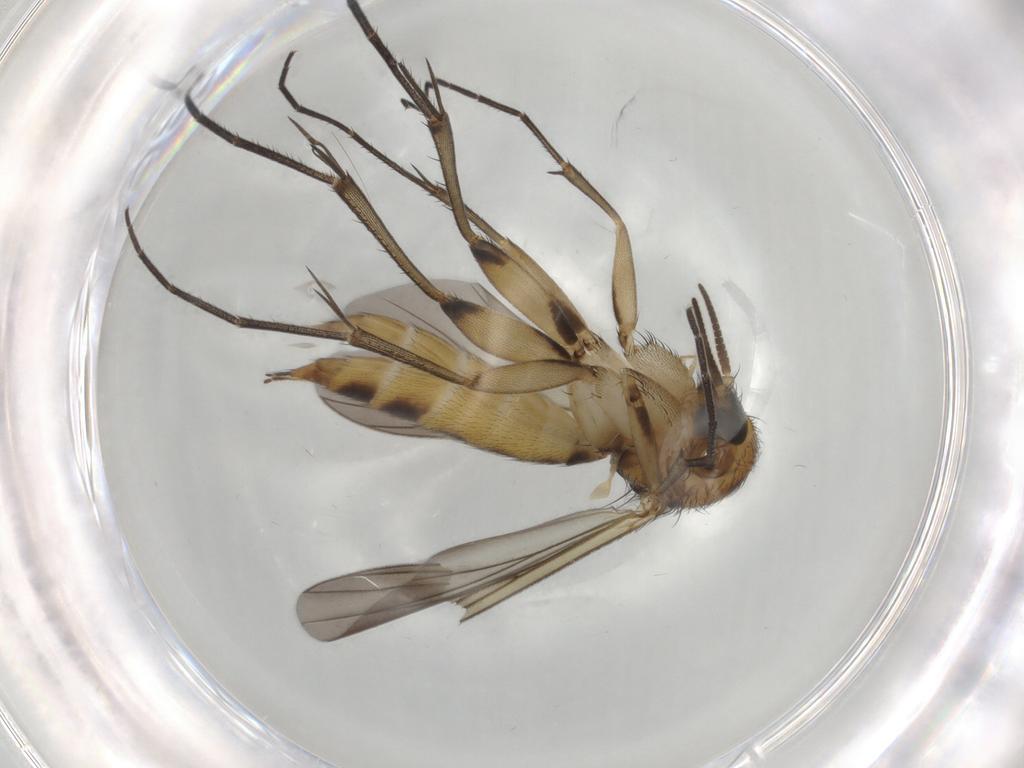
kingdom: Animalia
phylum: Arthropoda
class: Insecta
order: Diptera
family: Mycetophilidae
